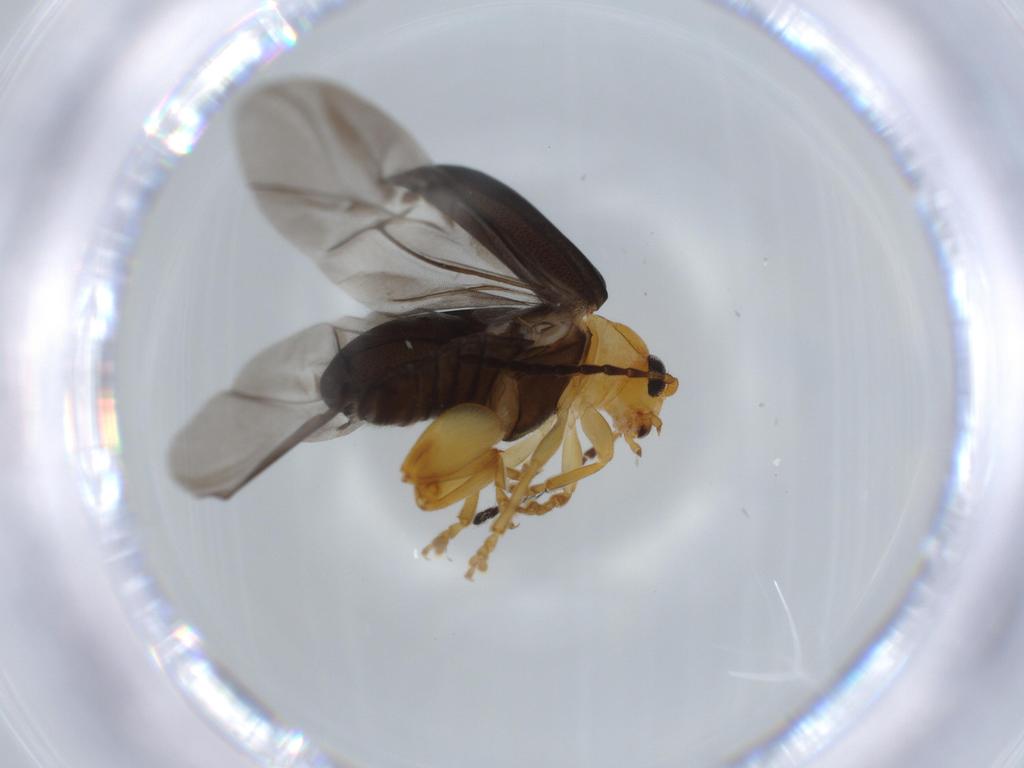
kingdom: Animalia
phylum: Arthropoda
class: Insecta
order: Coleoptera
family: Chrysomelidae
